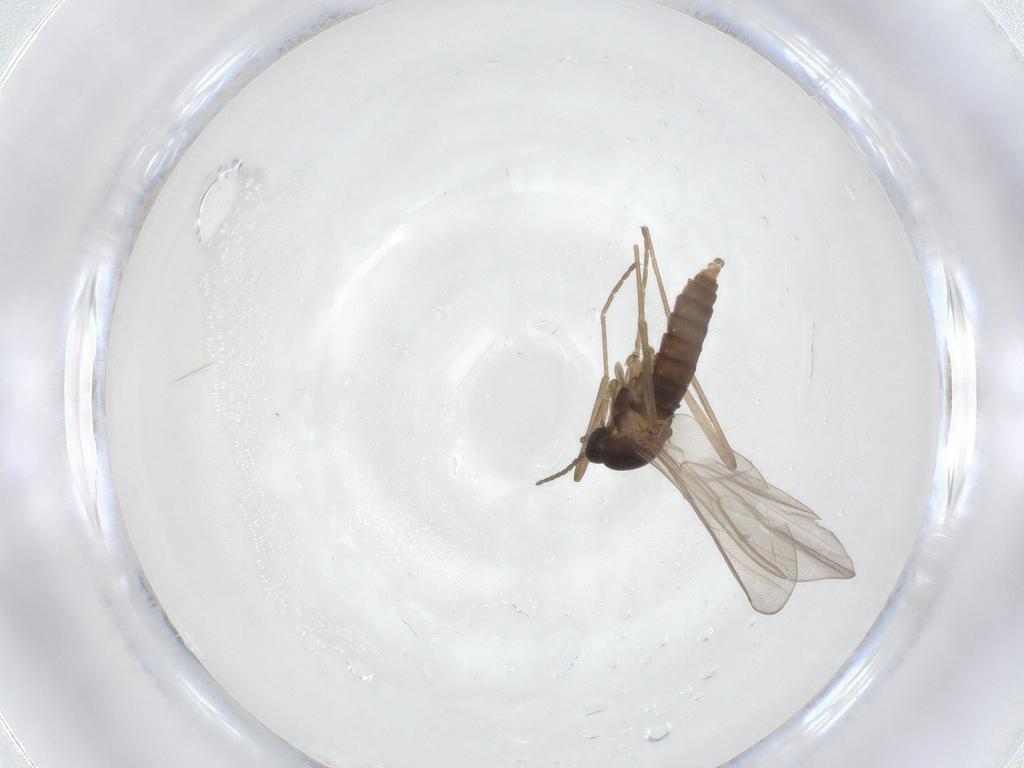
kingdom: Animalia
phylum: Arthropoda
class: Insecta
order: Diptera
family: Cecidomyiidae
